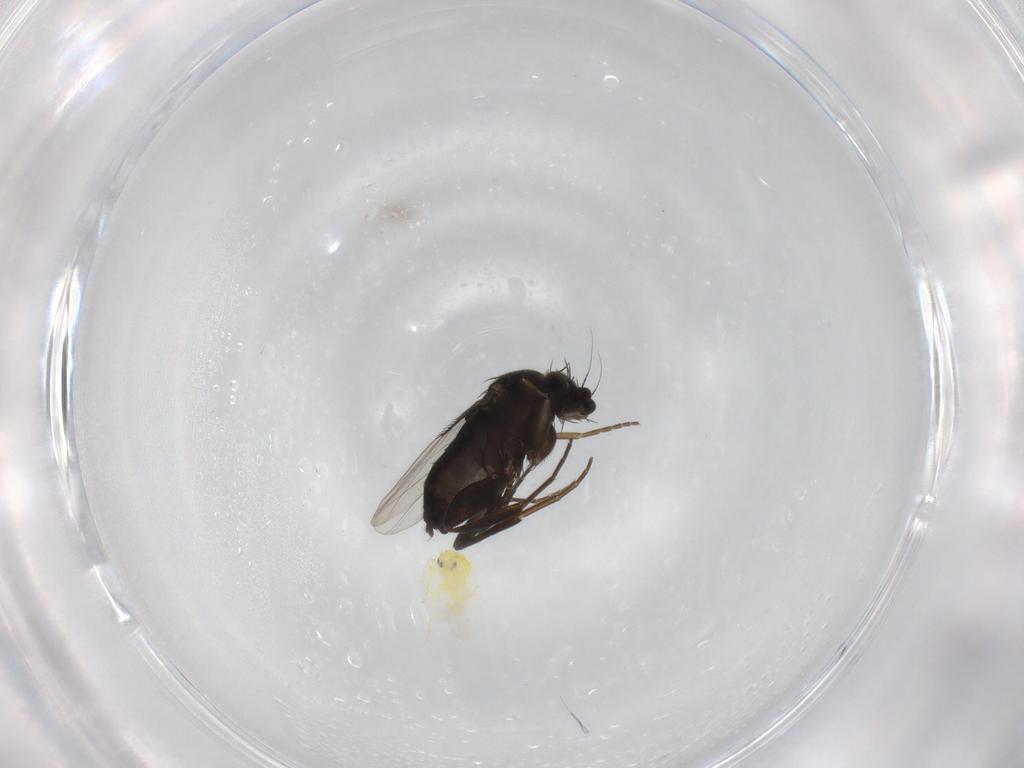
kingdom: Animalia
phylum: Arthropoda
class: Insecta
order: Hemiptera
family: Aleyrodidae
